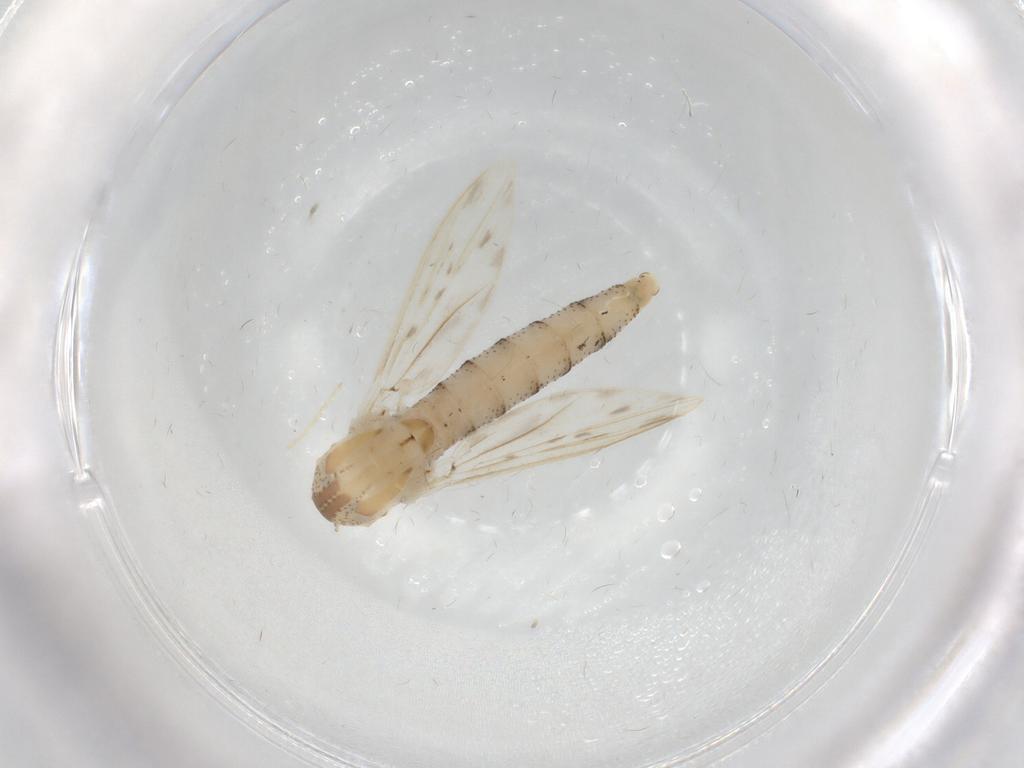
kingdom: Animalia
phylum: Arthropoda
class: Insecta
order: Diptera
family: Chaoboridae
